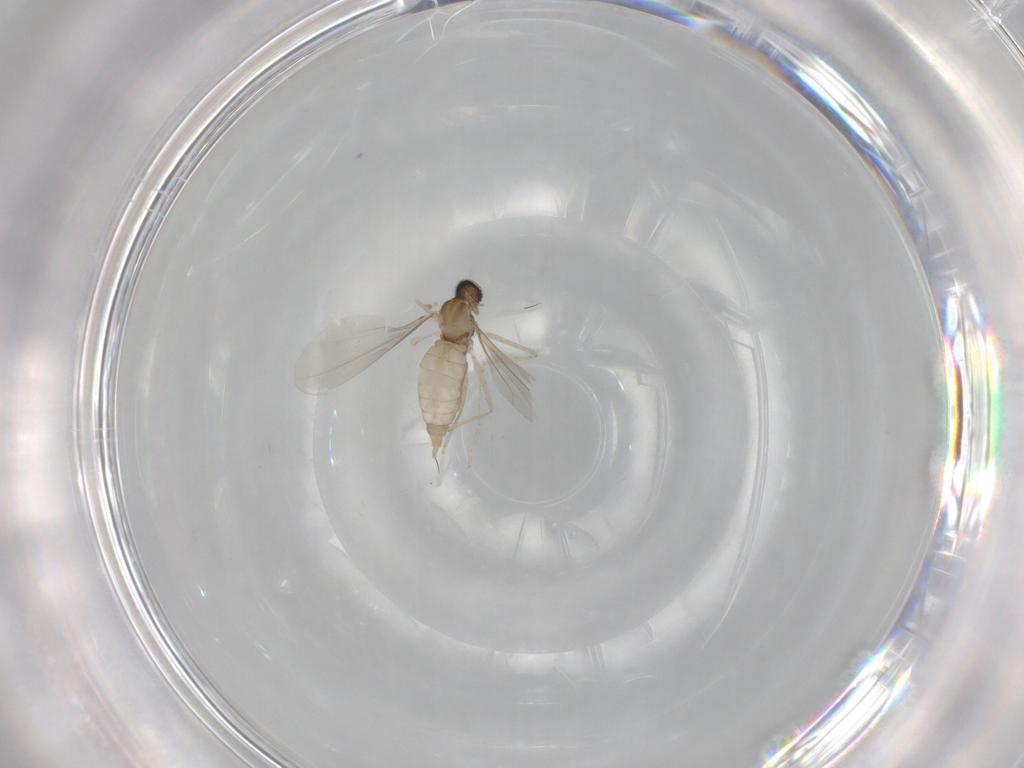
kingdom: Animalia
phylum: Arthropoda
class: Insecta
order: Diptera
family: Cecidomyiidae
